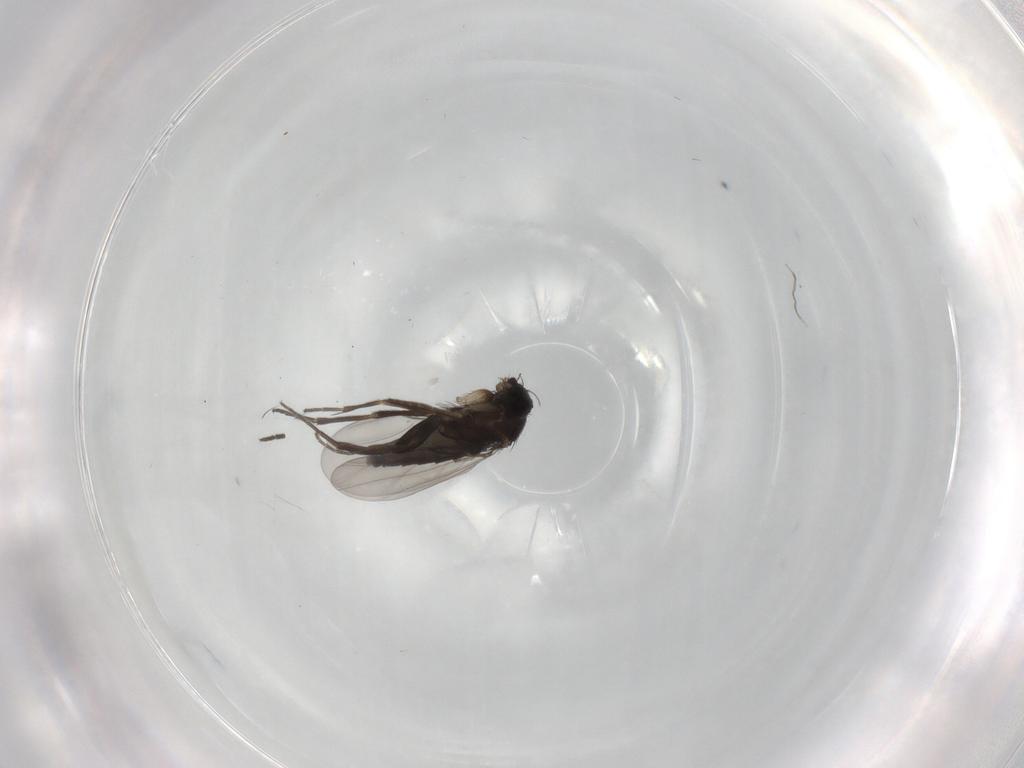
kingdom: Animalia
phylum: Arthropoda
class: Insecta
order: Diptera
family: Phoridae
